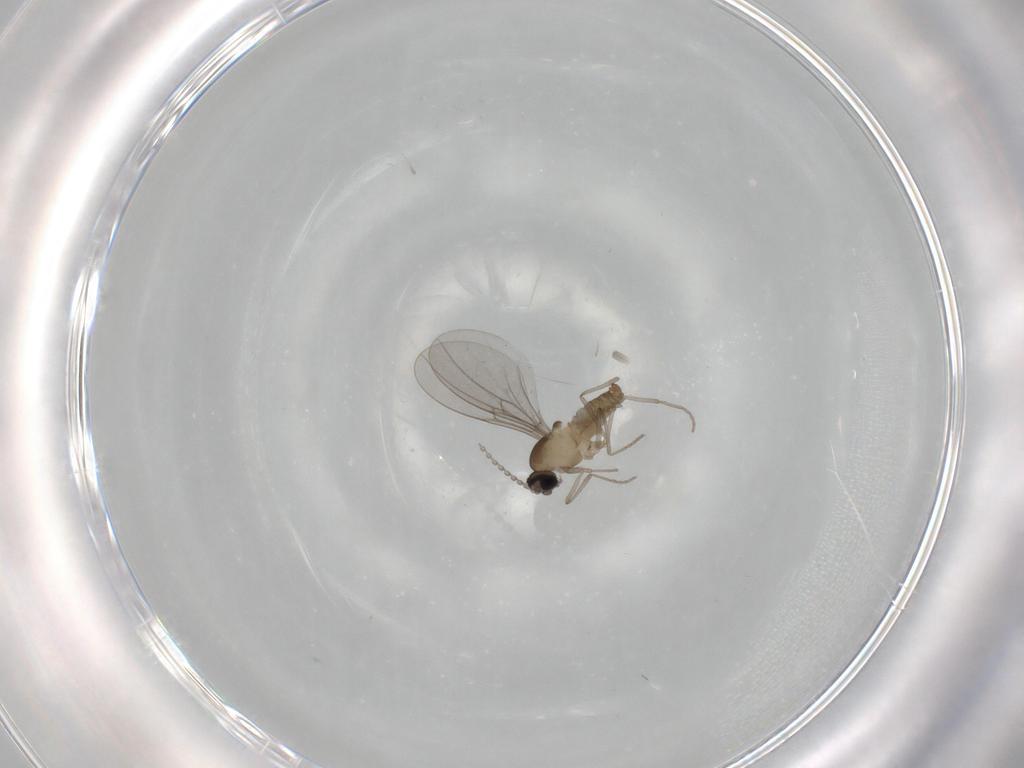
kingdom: Animalia
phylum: Arthropoda
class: Insecta
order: Diptera
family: Cecidomyiidae
